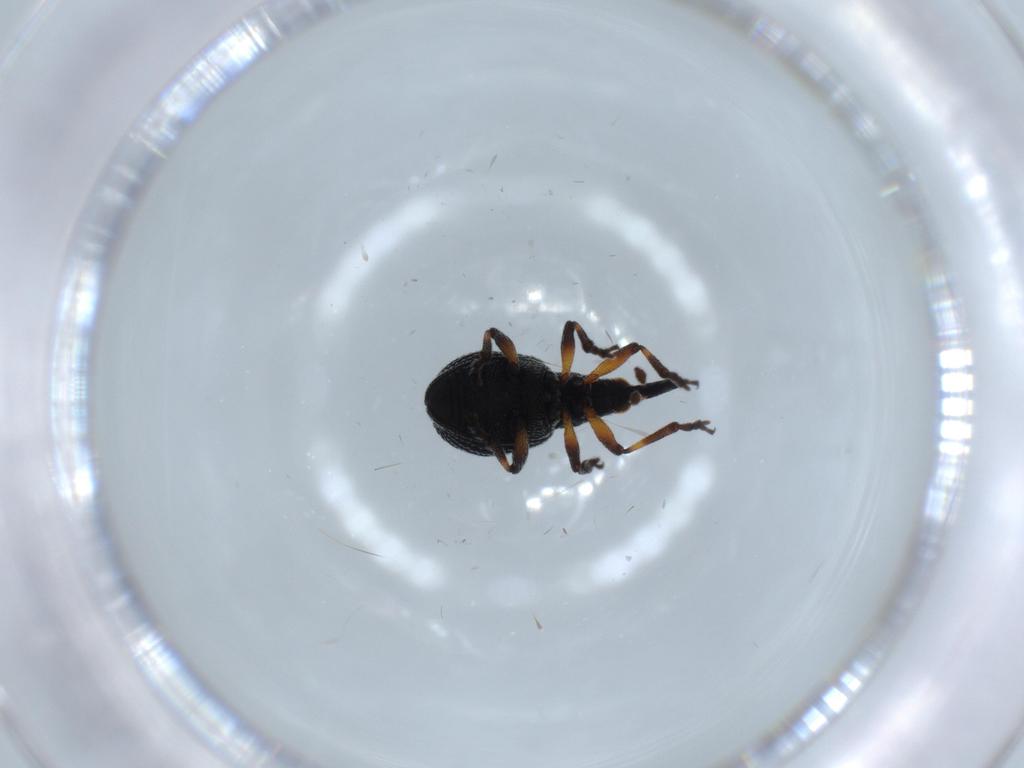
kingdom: Animalia
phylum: Arthropoda
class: Insecta
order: Coleoptera
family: Brentidae
